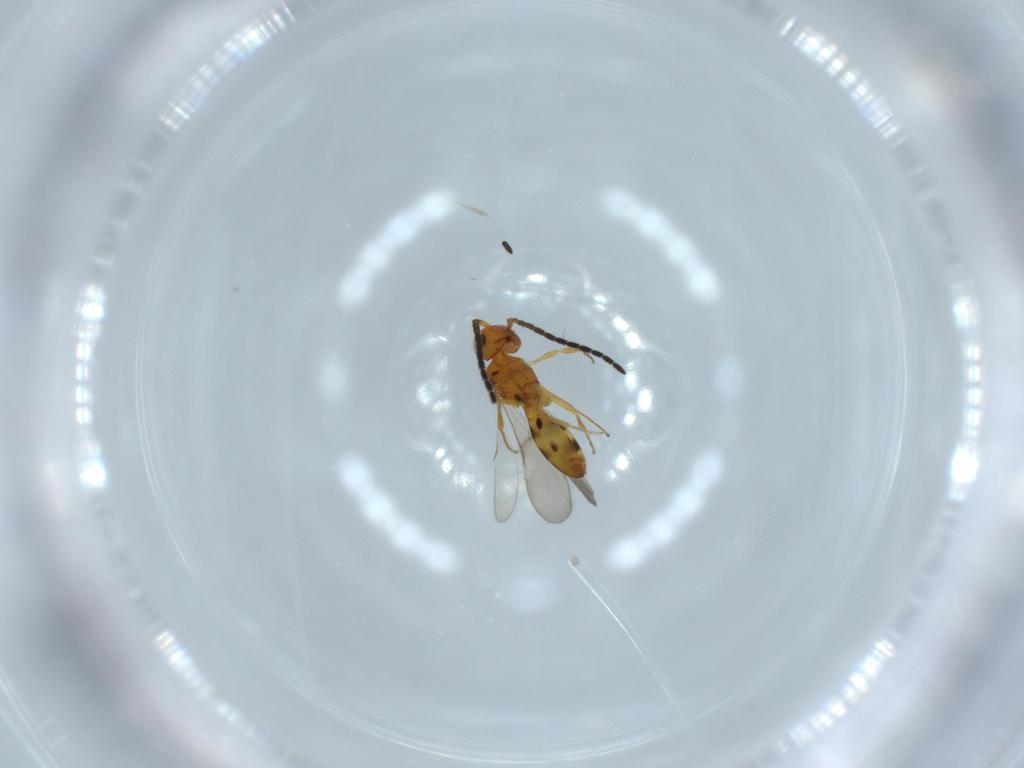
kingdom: Animalia
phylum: Arthropoda
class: Insecta
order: Hymenoptera
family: Scelionidae
